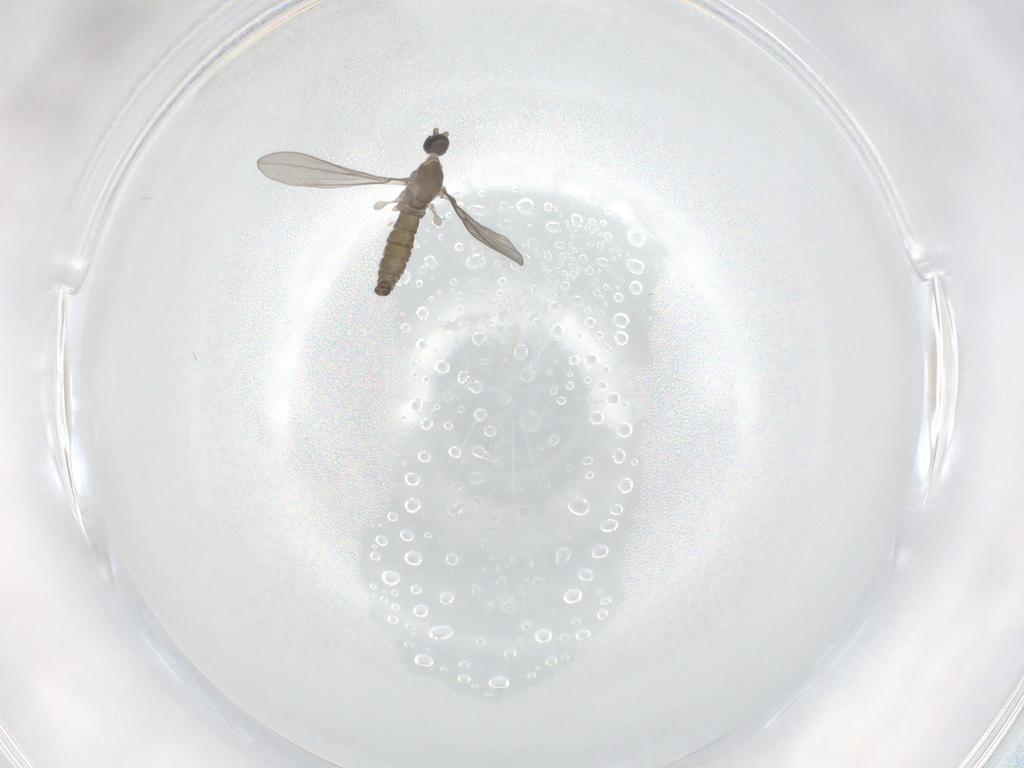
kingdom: Animalia
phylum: Arthropoda
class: Insecta
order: Diptera
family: Cecidomyiidae
